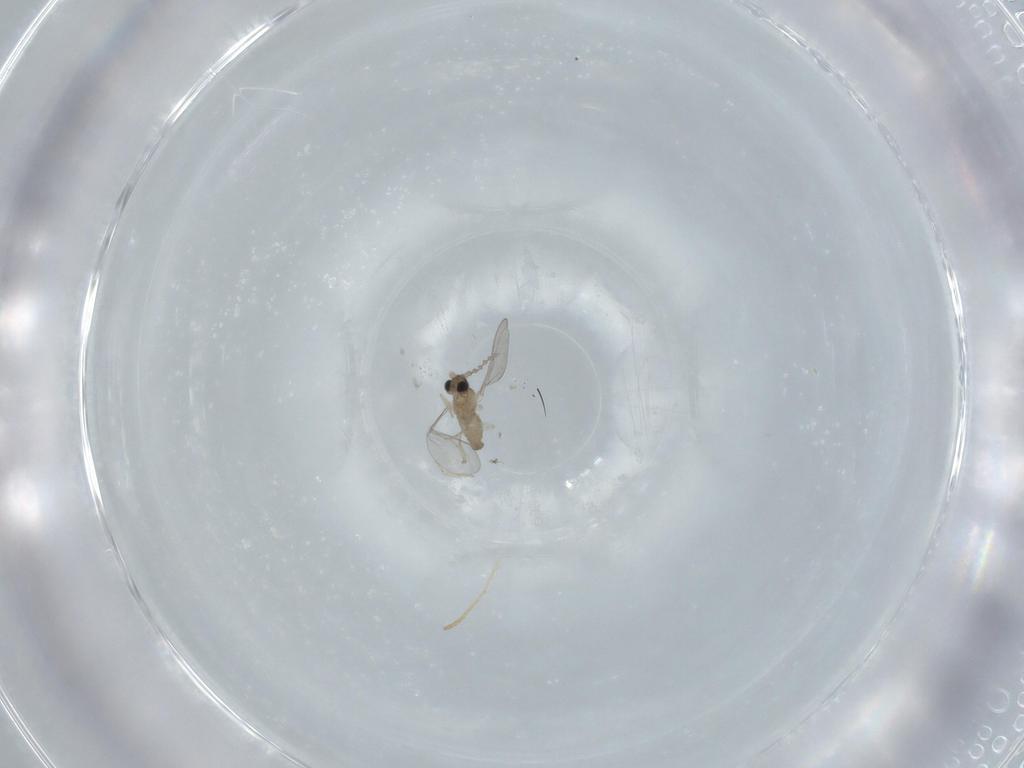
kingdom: Animalia
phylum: Arthropoda
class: Insecta
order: Diptera
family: Cecidomyiidae
